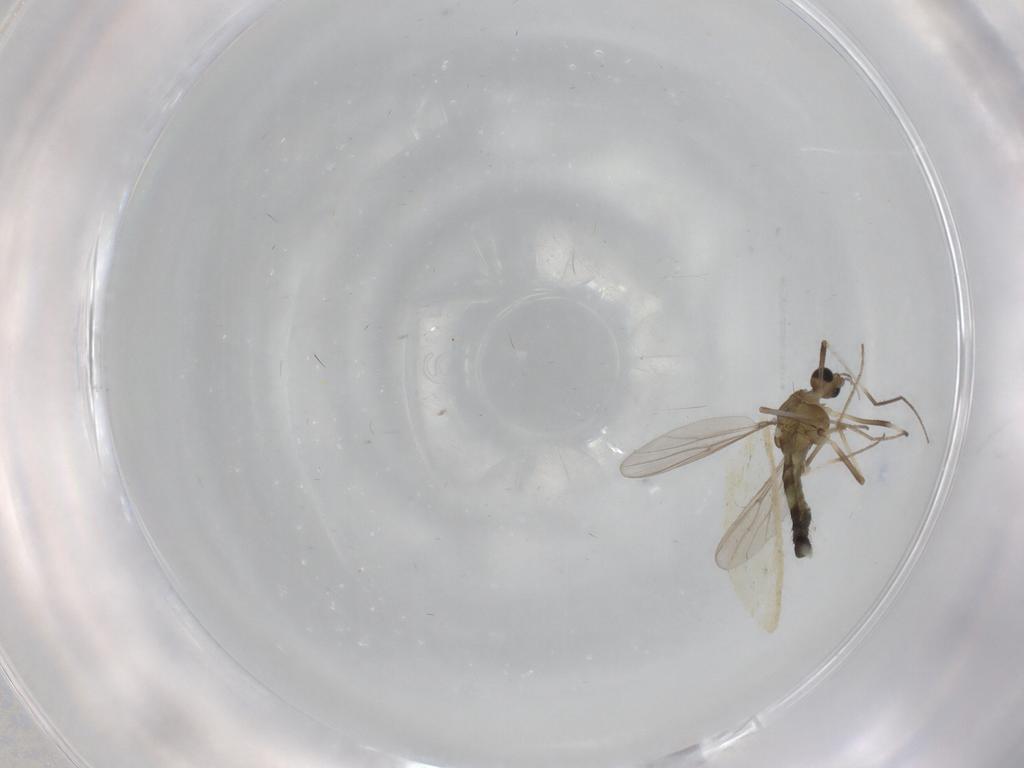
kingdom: Animalia
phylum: Arthropoda
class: Insecta
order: Diptera
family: Chironomidae
